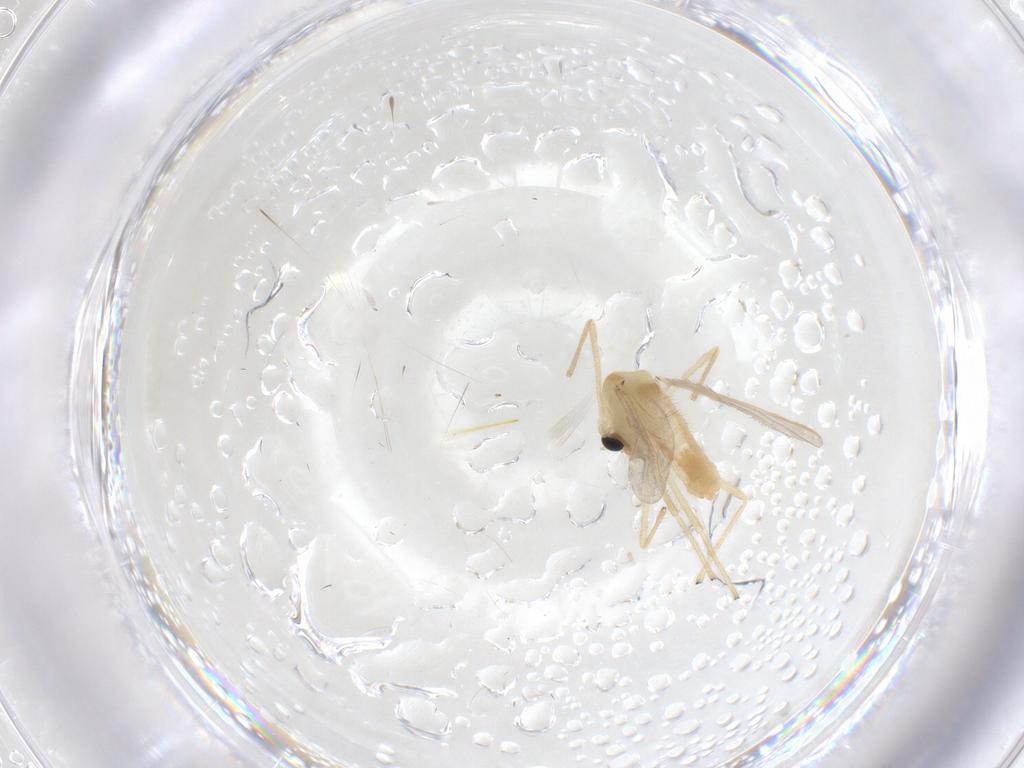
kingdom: Animalia
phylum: Arthropoda
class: Insecta
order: Diptera
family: Chironomidae
